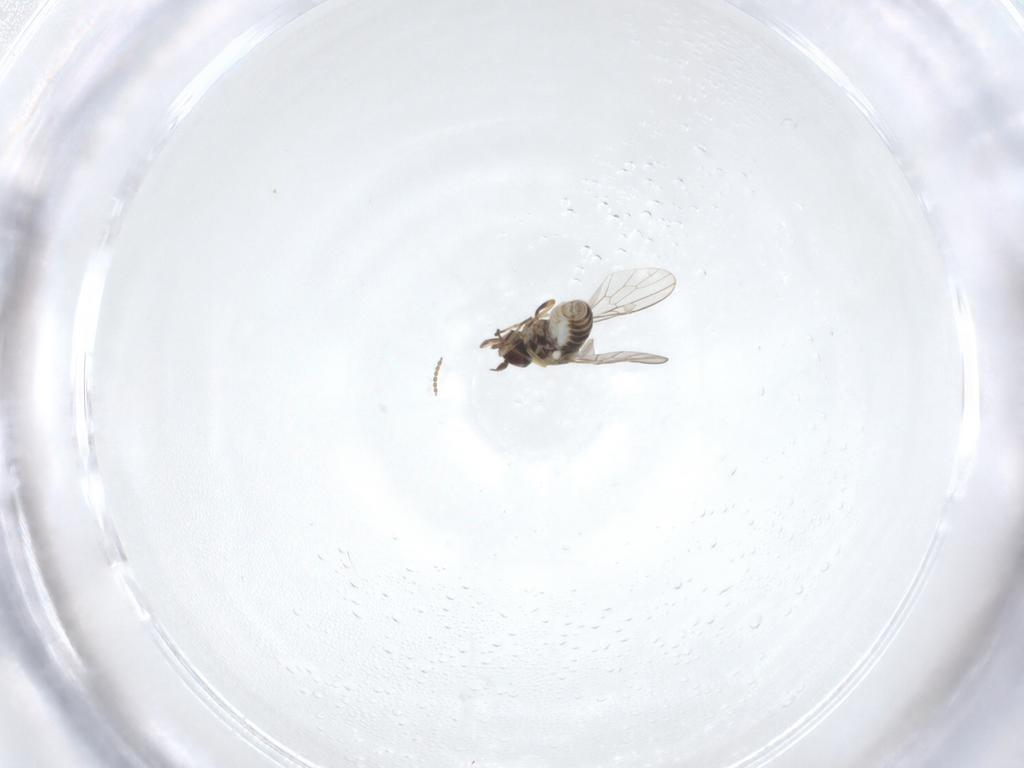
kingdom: Animalia
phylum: Arthropoda
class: Insecta
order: Diptera
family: Mythicomyiidae
